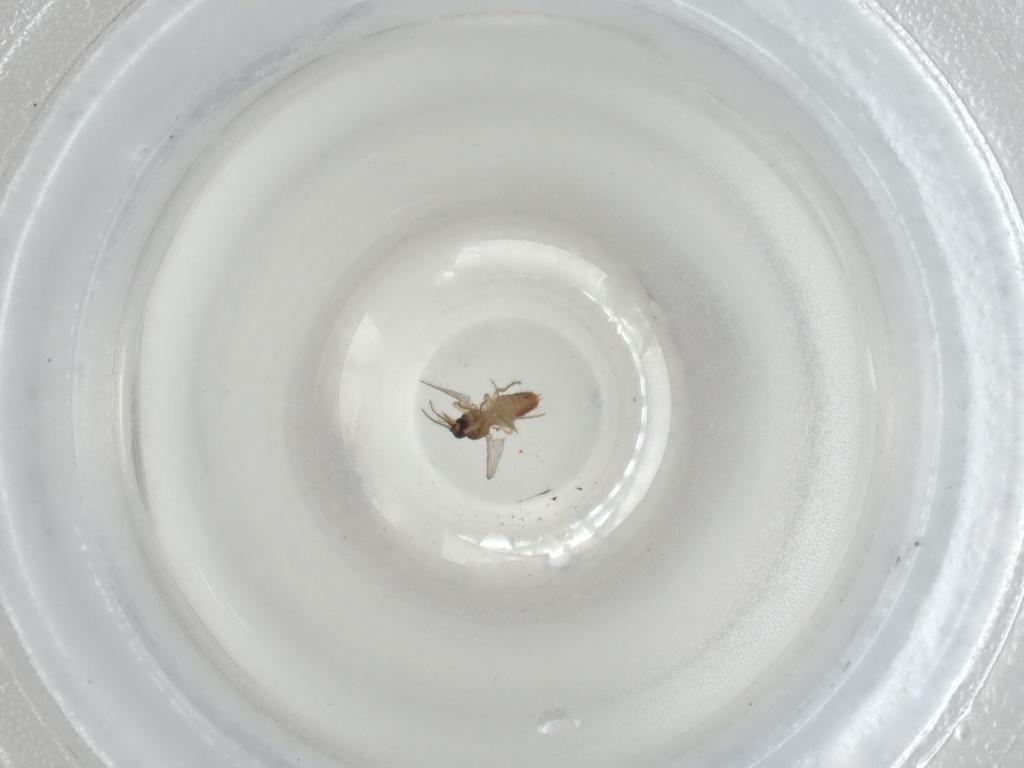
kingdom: Animalia
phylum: Arthropoda
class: Insecta
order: Diptera
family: Ceratopogonidae
